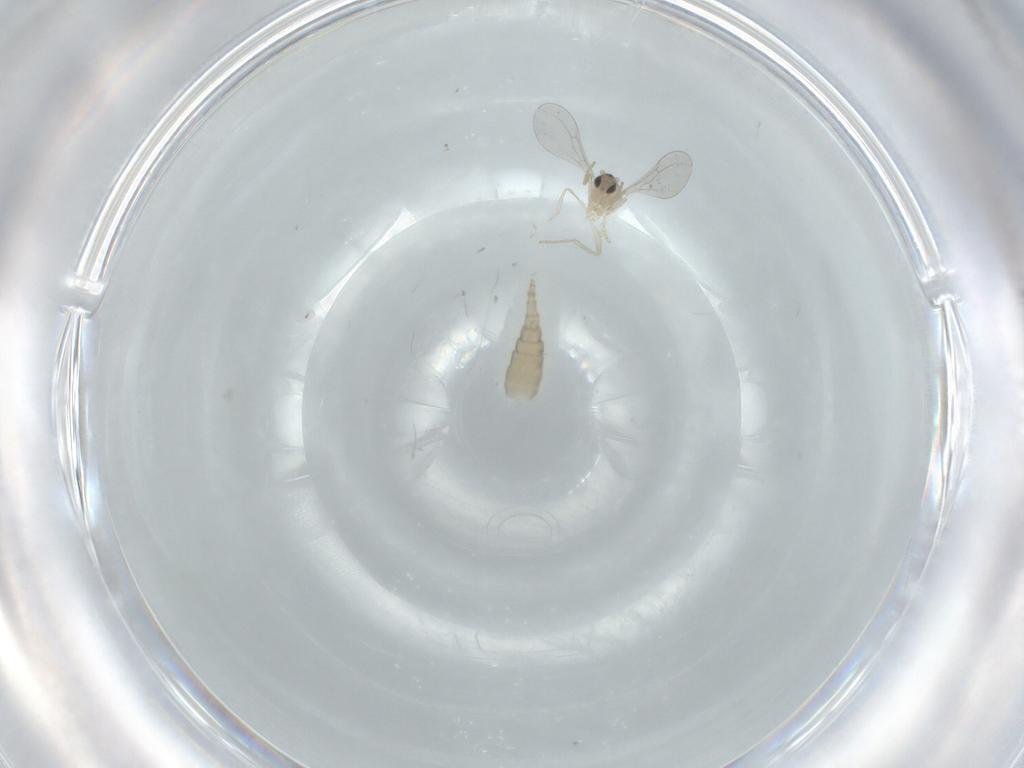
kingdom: Animalia
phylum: Arthropoda
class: Insecta
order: Diptera
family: Cecidomyiidae
